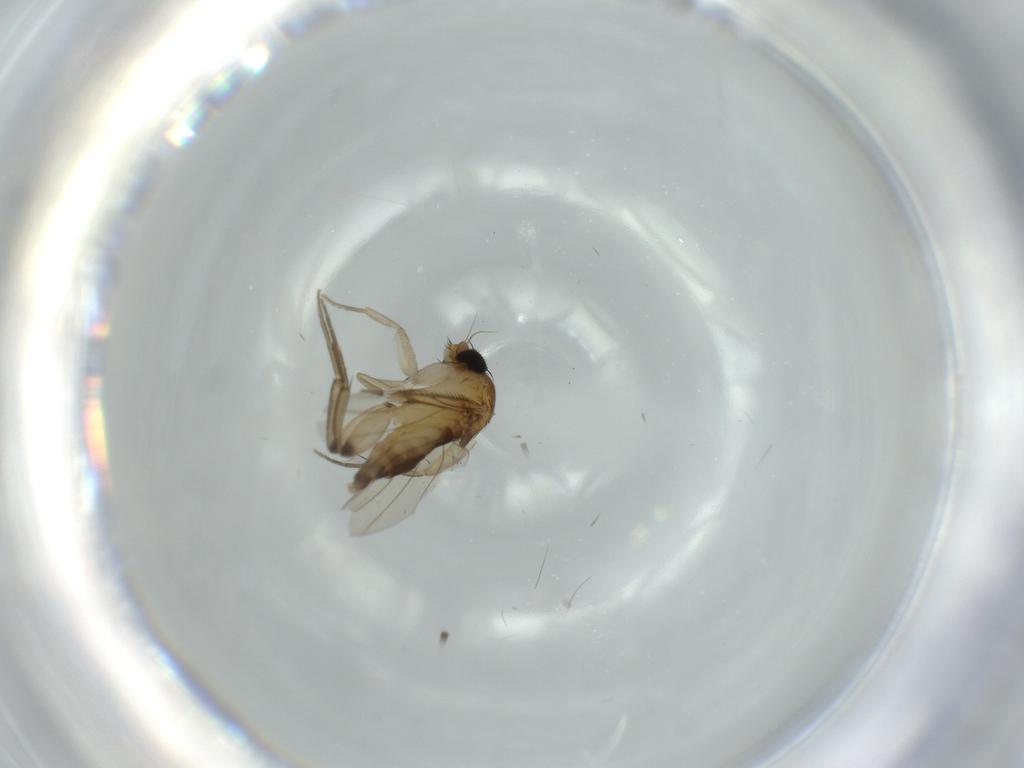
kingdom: Animalia
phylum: Arthropoda
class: Insecta
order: Diptera
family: Phoridae
